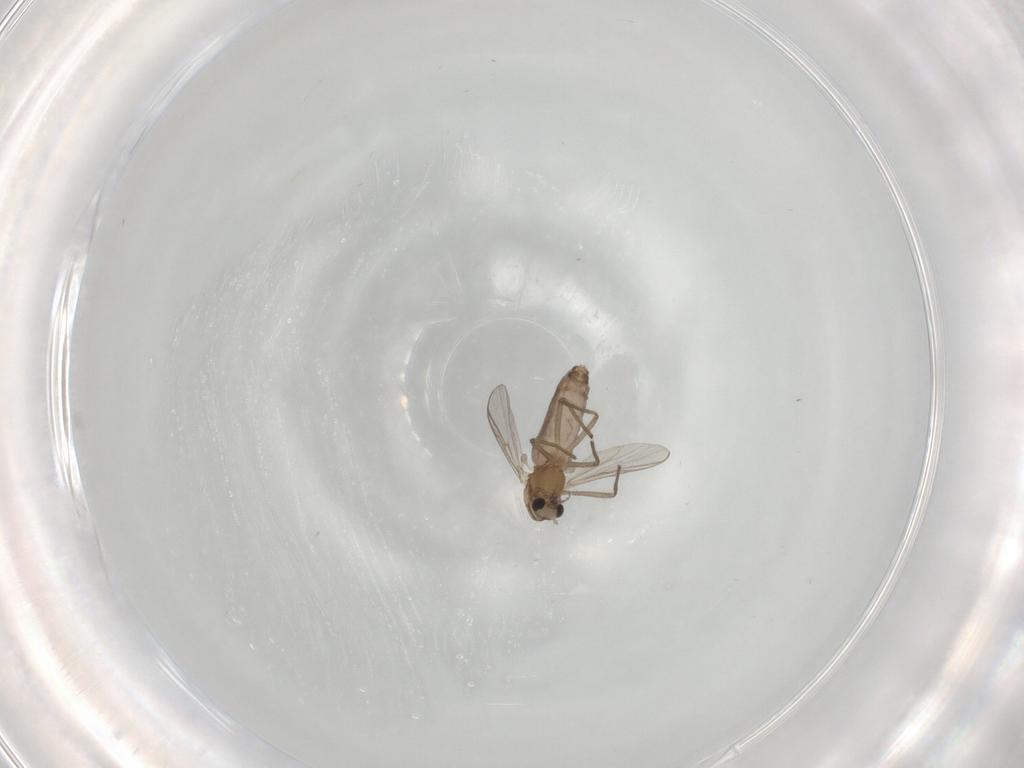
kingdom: Animalia
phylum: Arthropoda
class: Insecta
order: Diptera
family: Chironomidae
